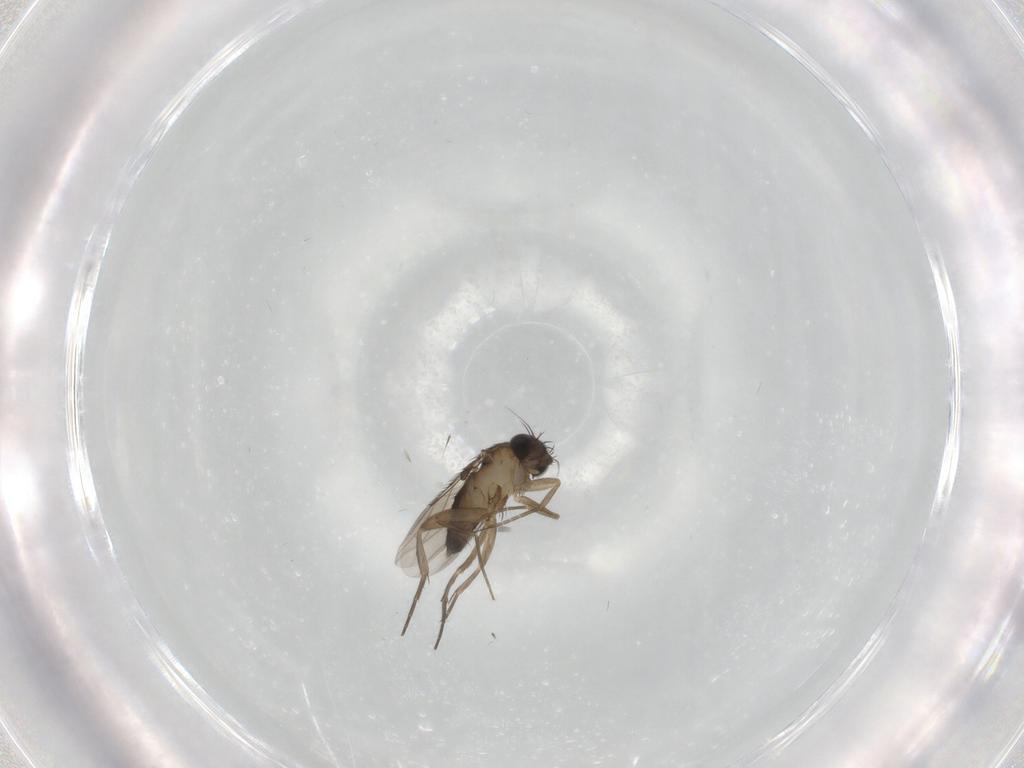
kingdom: Animalia
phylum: Arthropoda
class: Insecta
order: Diptera
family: Phoridae
